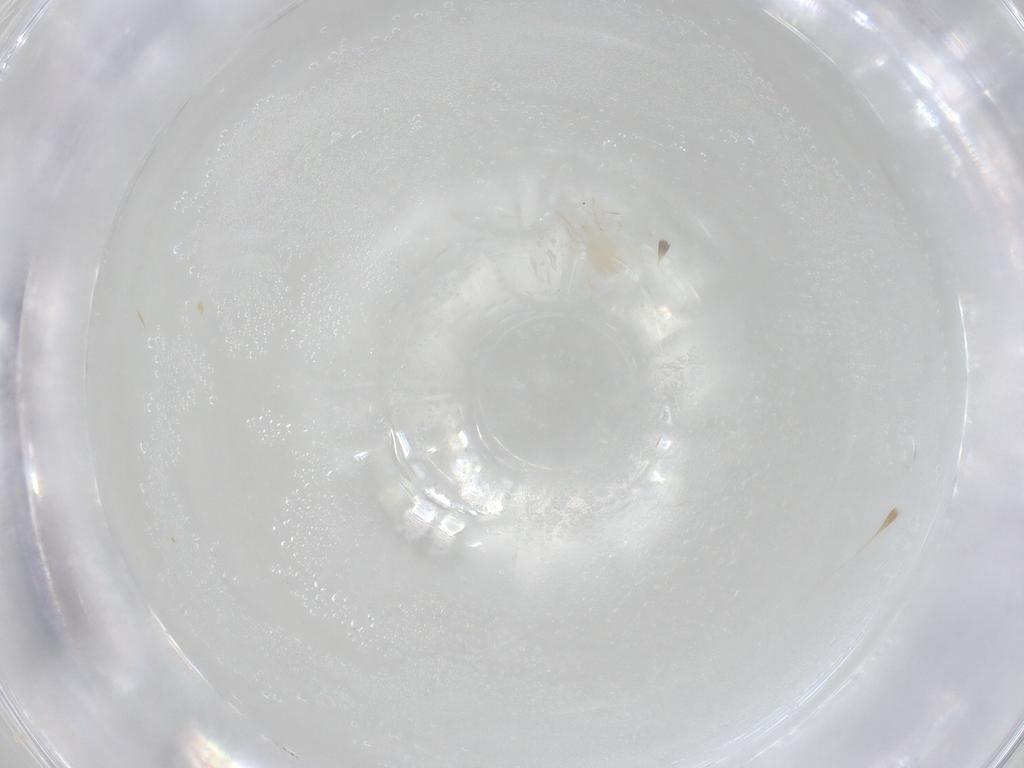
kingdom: Animalia
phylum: Arthropoda
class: Arachnida
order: Mesostigmata
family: Phytoseiidae
